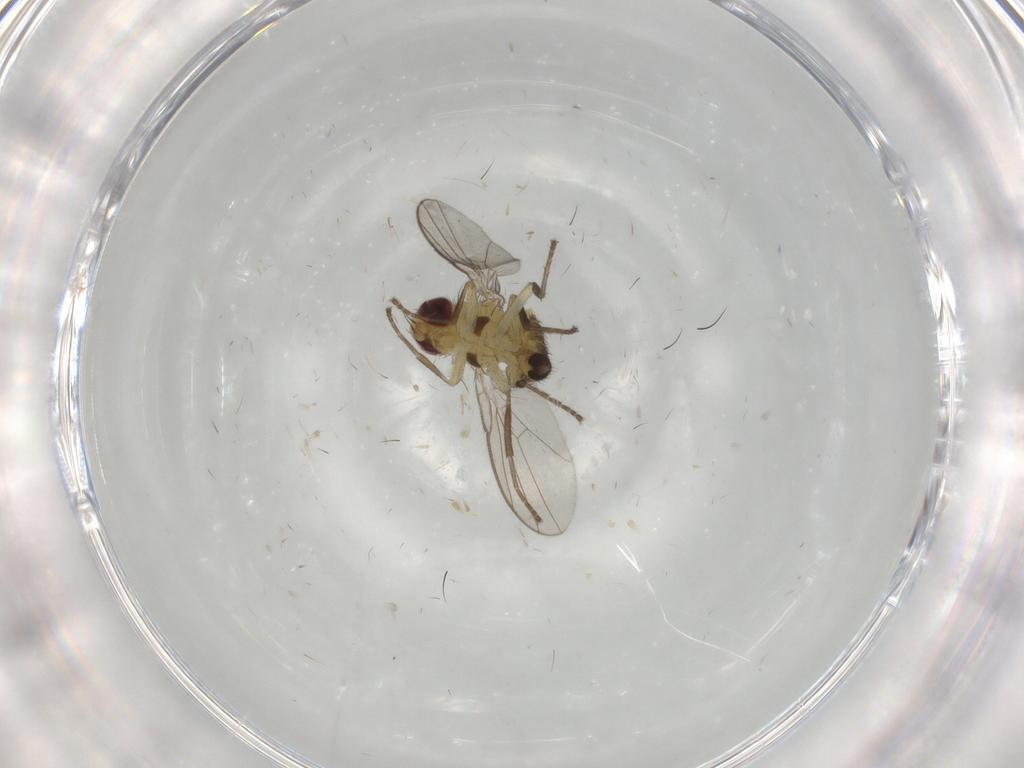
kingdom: Animalia
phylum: Arthropoda
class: Insecta
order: Diptera
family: Agromyzidae
